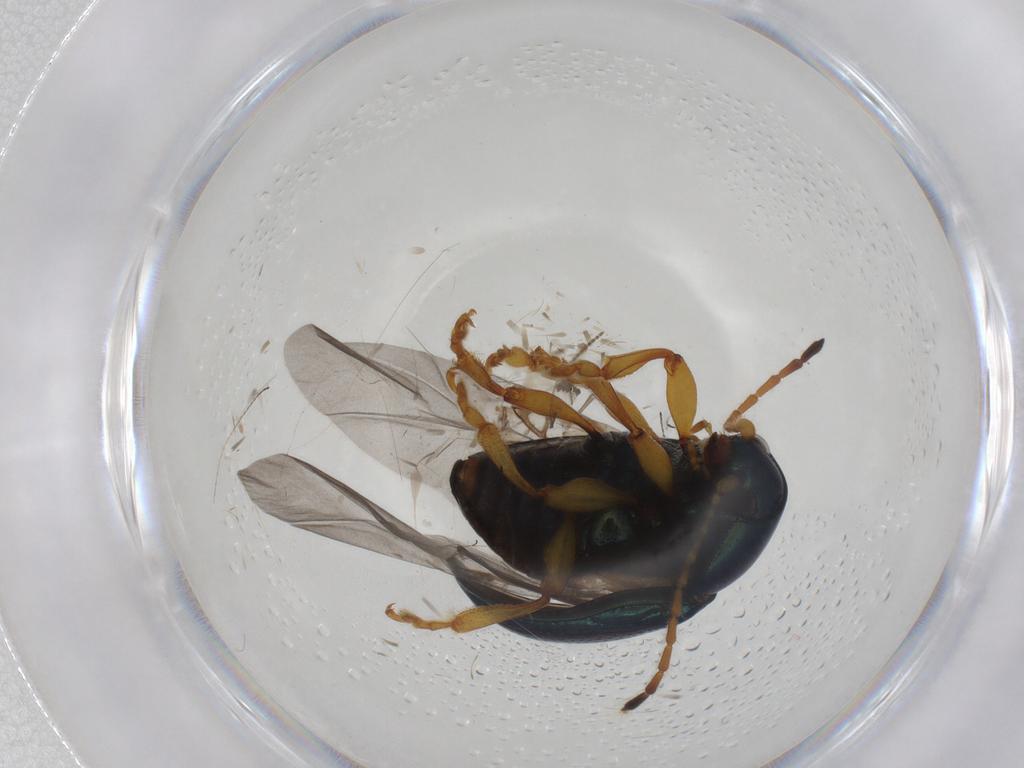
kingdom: Animalia
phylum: Arthropoda
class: Insecta
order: Coleoptera
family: Chrysomelidae
